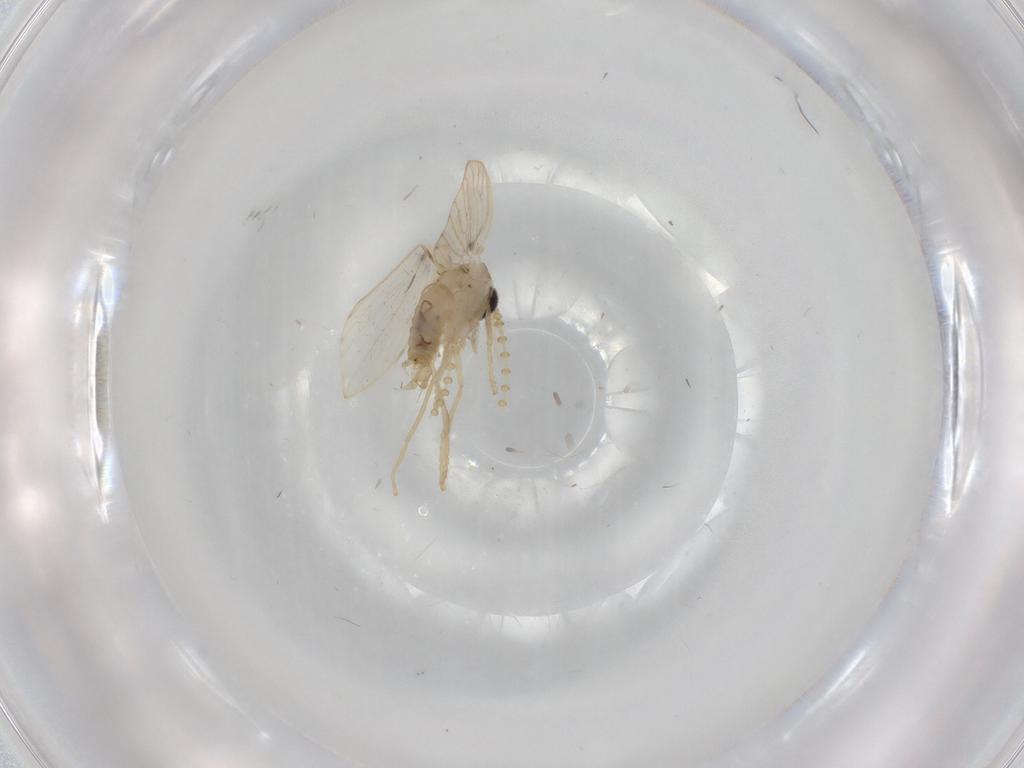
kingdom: Animalia
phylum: Arthropoda
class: Insecta
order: Diptera
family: Psychodidae
